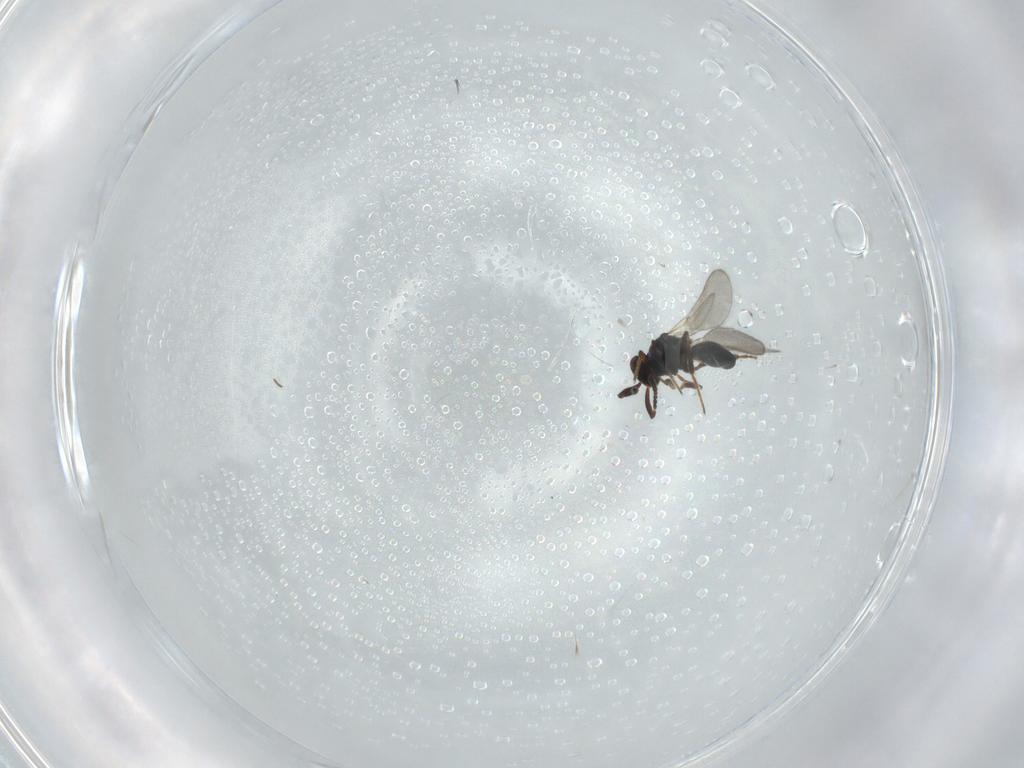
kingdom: Animalia
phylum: Arthropoda
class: Insecta
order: Hymenoptera
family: Platygastridae
